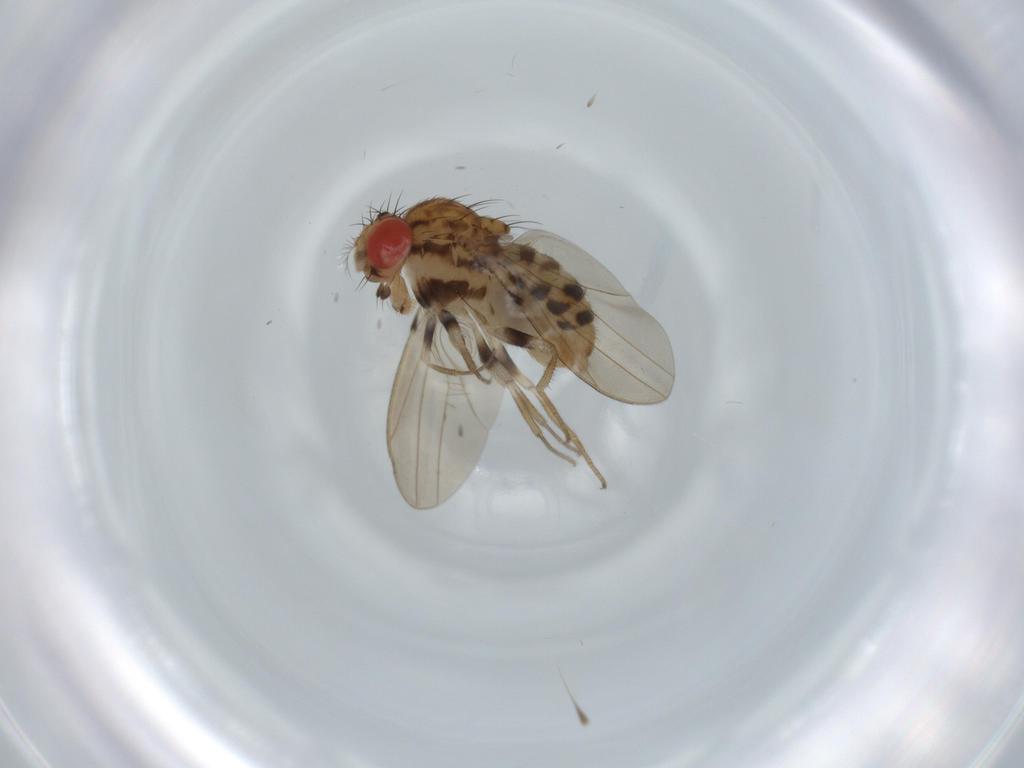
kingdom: Animalia
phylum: Arthropoda
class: Insecta
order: Diptera
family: Drosophilidae
